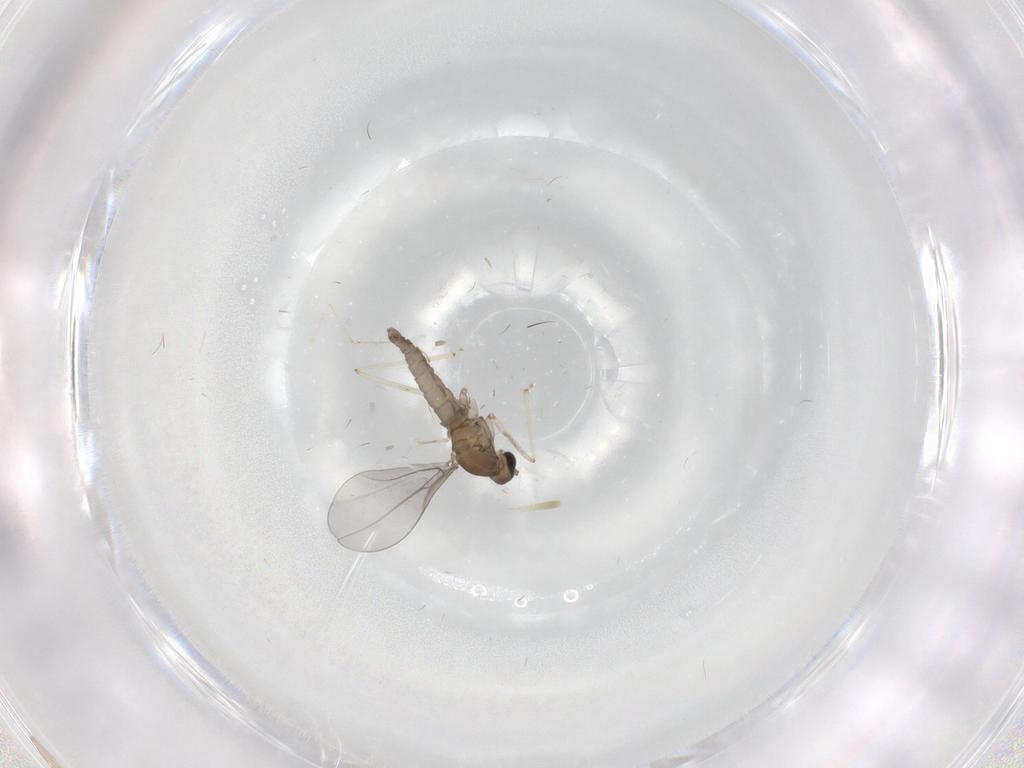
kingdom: Animalia
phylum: Arthropoda
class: Insecta
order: Diptera
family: Cecidomyiidae
